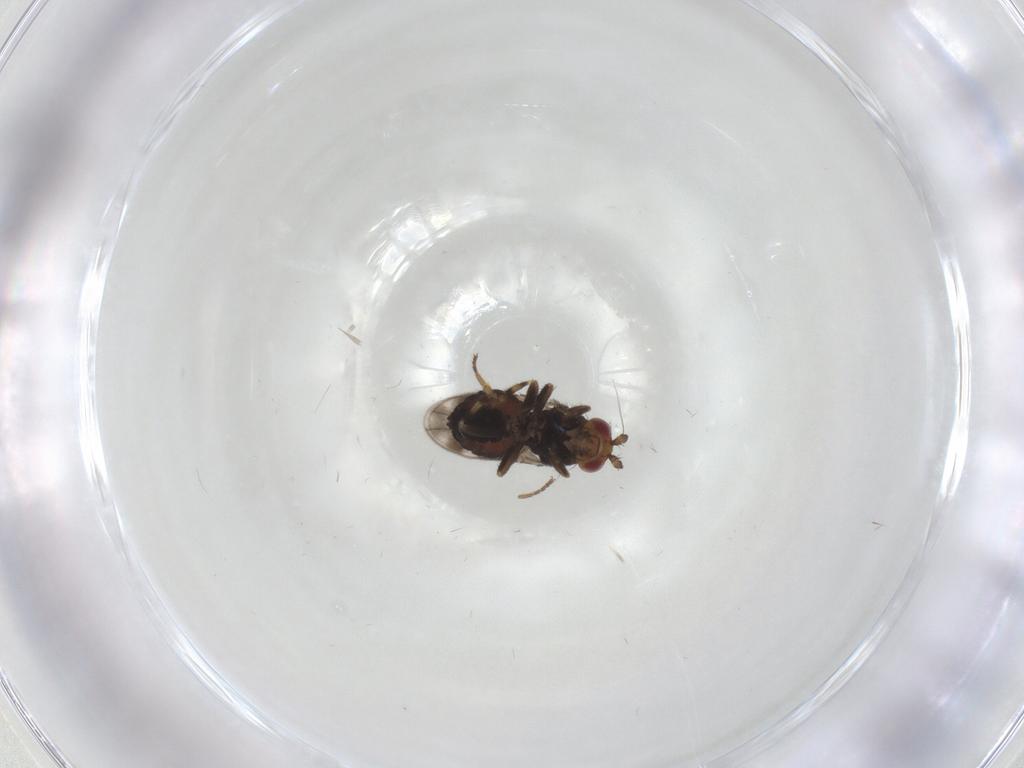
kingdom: Animalia
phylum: Arthropoda
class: Insecta
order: Diptera
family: Sphaeroceridae
